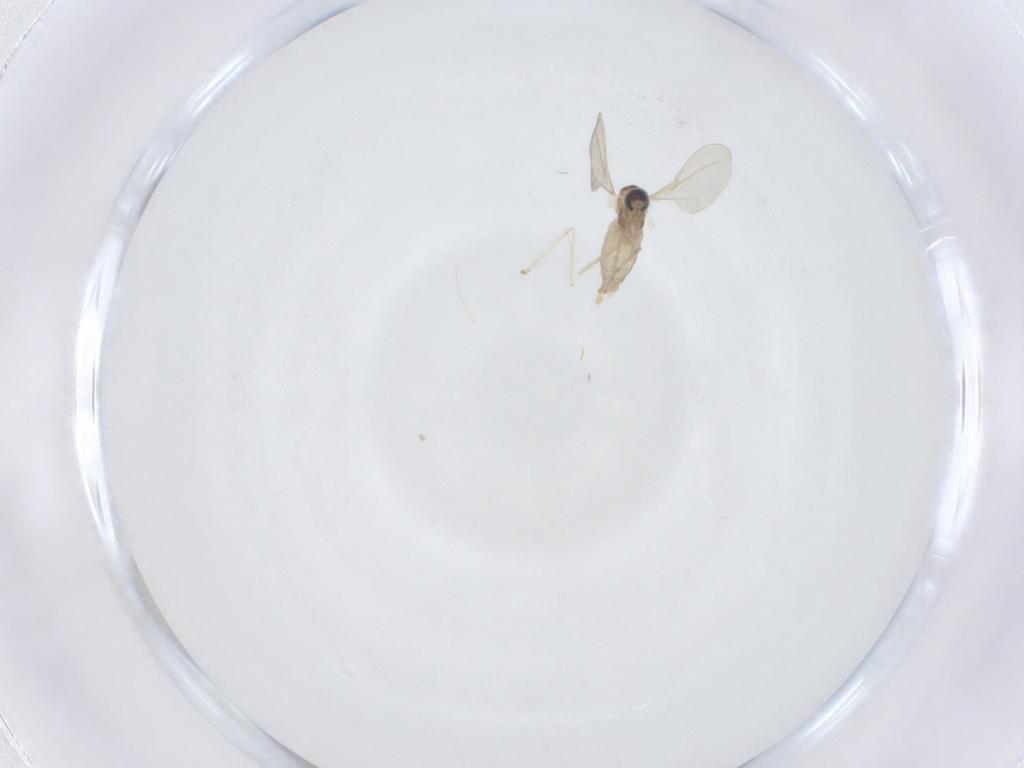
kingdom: Animalia
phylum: Arthropoda
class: Insecta
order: Diptera
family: Cecidomyiidae
